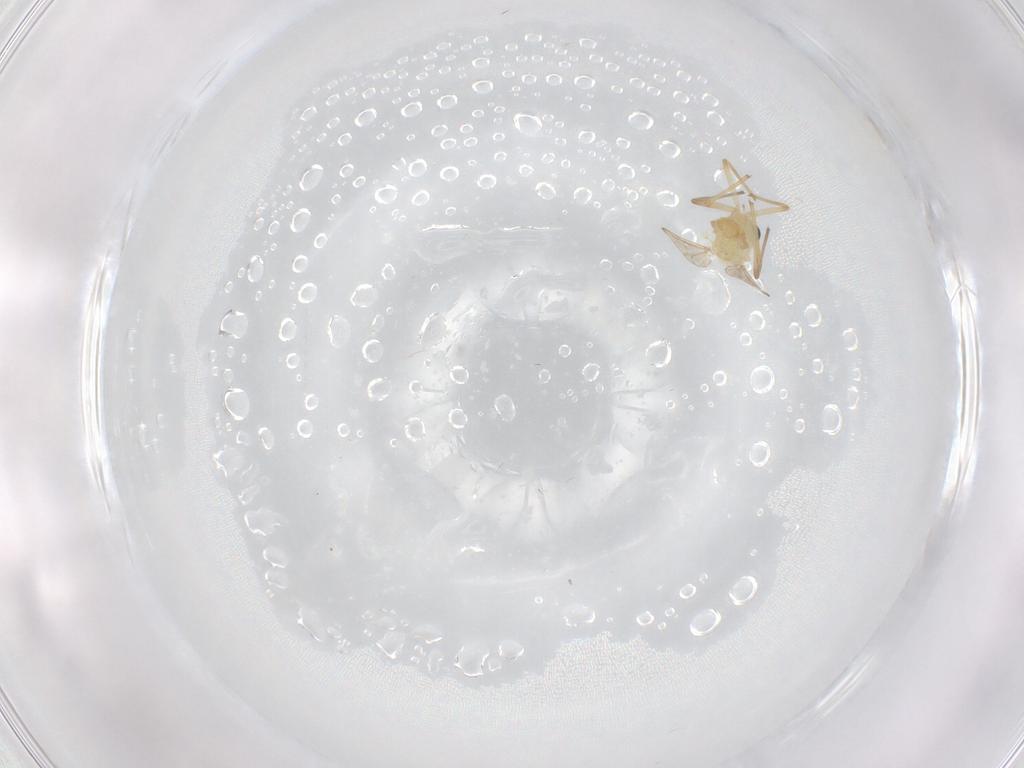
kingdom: Animalia
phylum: Arthropoda
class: Insecta
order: Diptera
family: Chironomidae
